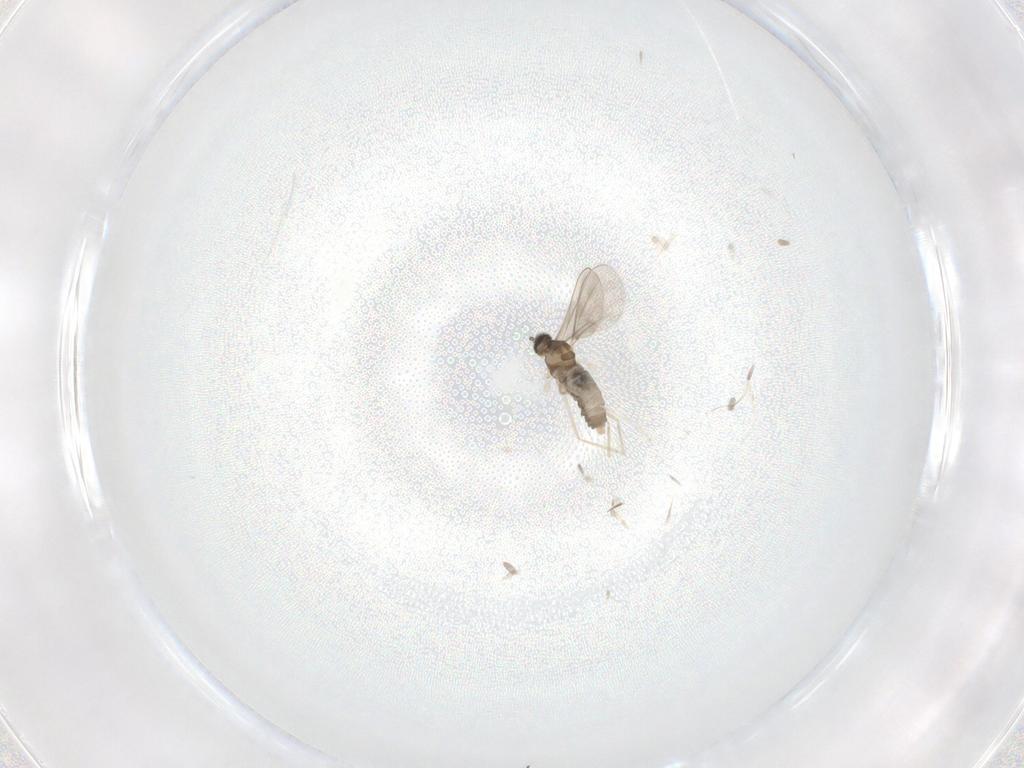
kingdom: Animalia
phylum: Arthropoda
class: Insecta
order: Diptera
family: Cecidomyiidae
